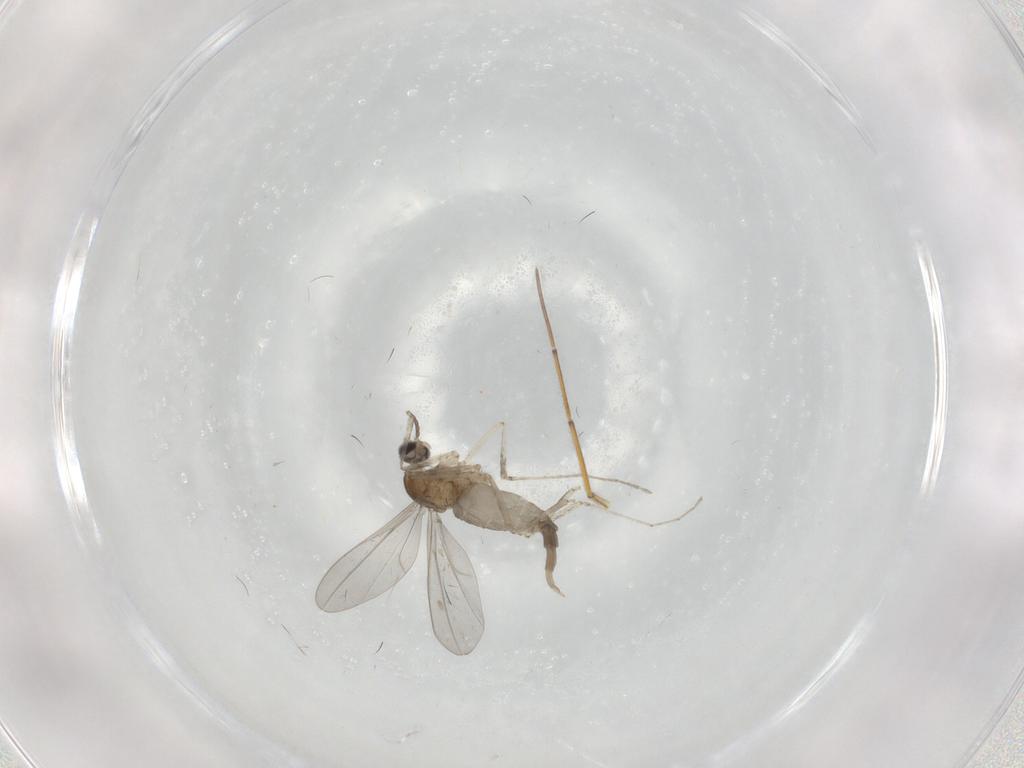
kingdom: Animalia
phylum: Arthropoda
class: Insecta
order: Diptera
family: Cecidomyiidae
